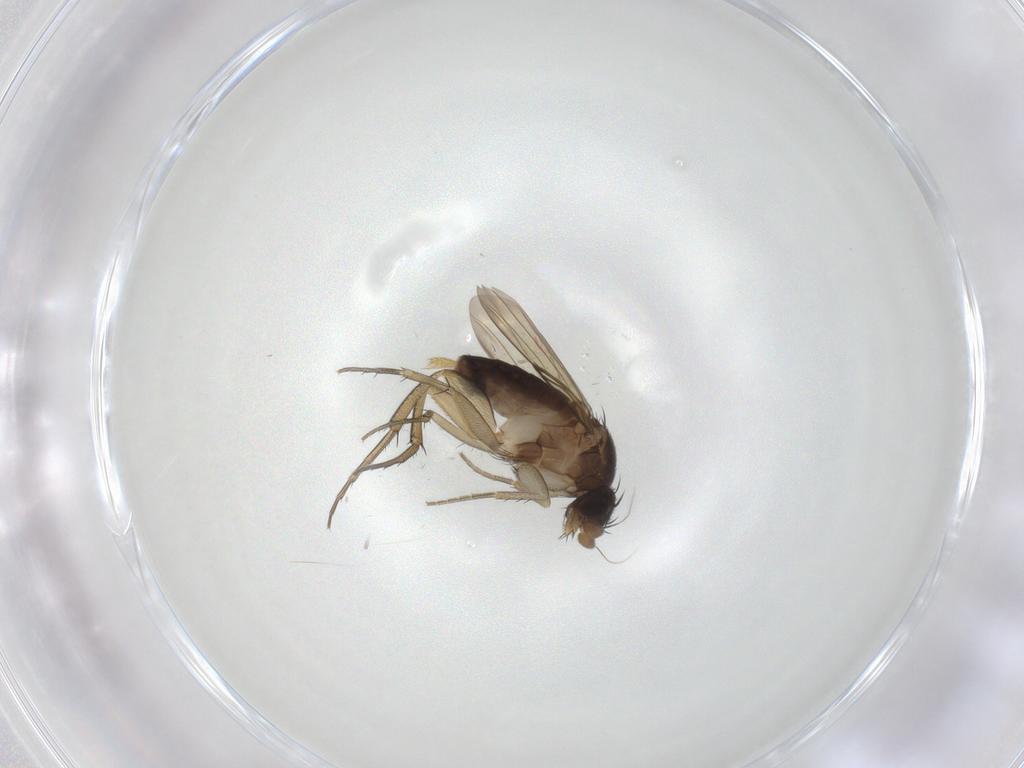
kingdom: Animalia
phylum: Arthropoda
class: Insecta
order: Diptera
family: Phoridae
